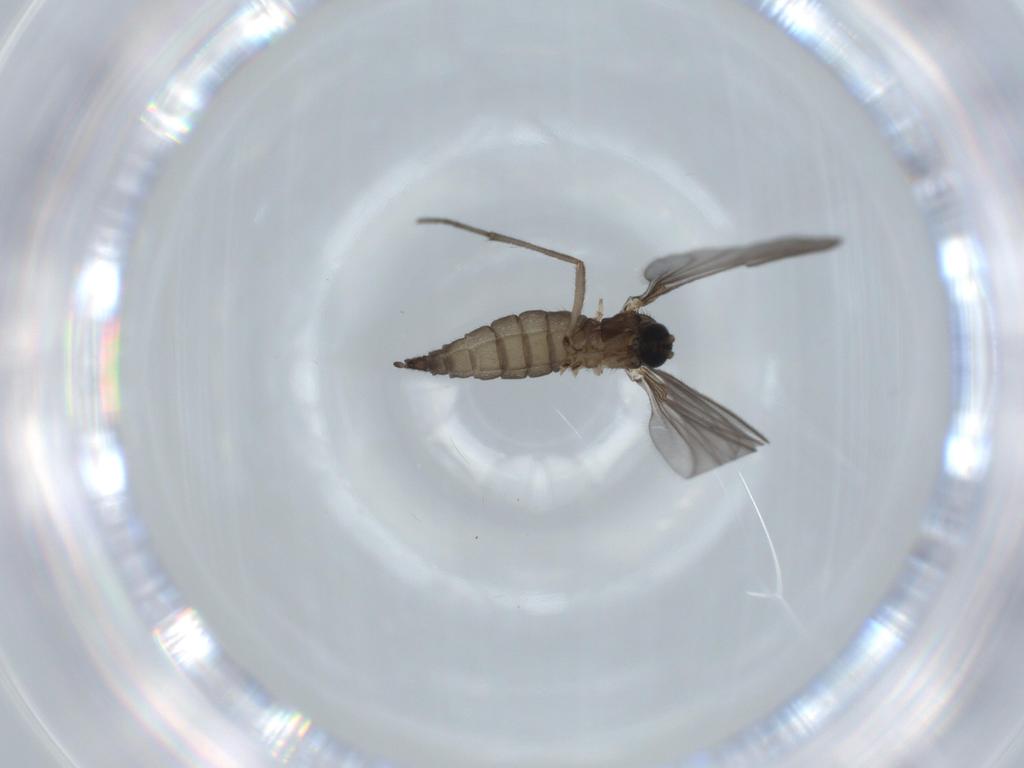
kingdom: Animalia
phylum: Arthropoda
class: Insecta
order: Diptera
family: Sciaridae
